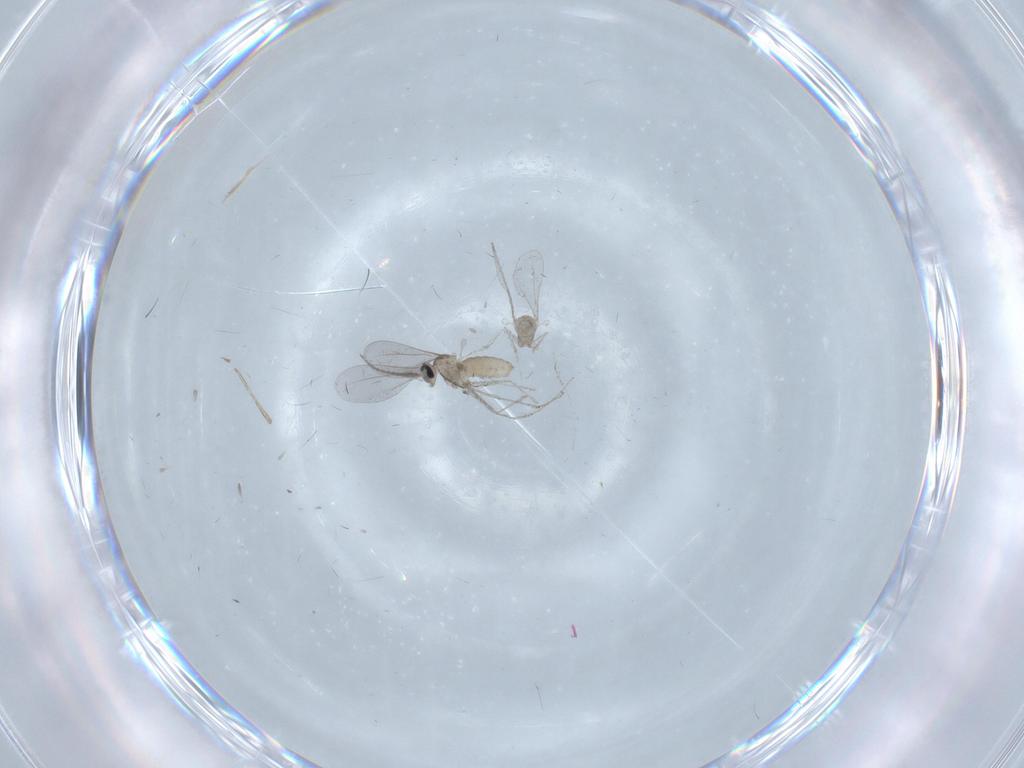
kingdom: Animalia
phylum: Arthropoda
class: Insecta
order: Diptera
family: Cecidomyiidae
